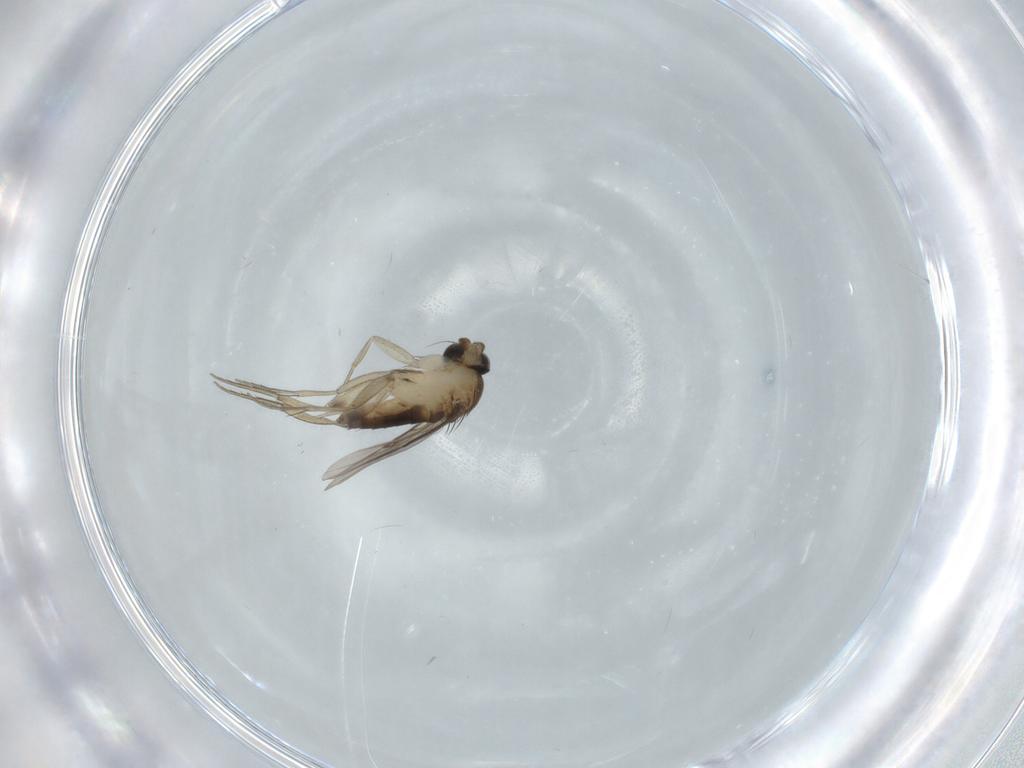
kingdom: Animalia
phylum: Arthropoda
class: Insecta
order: Diptera
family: Phoridae
